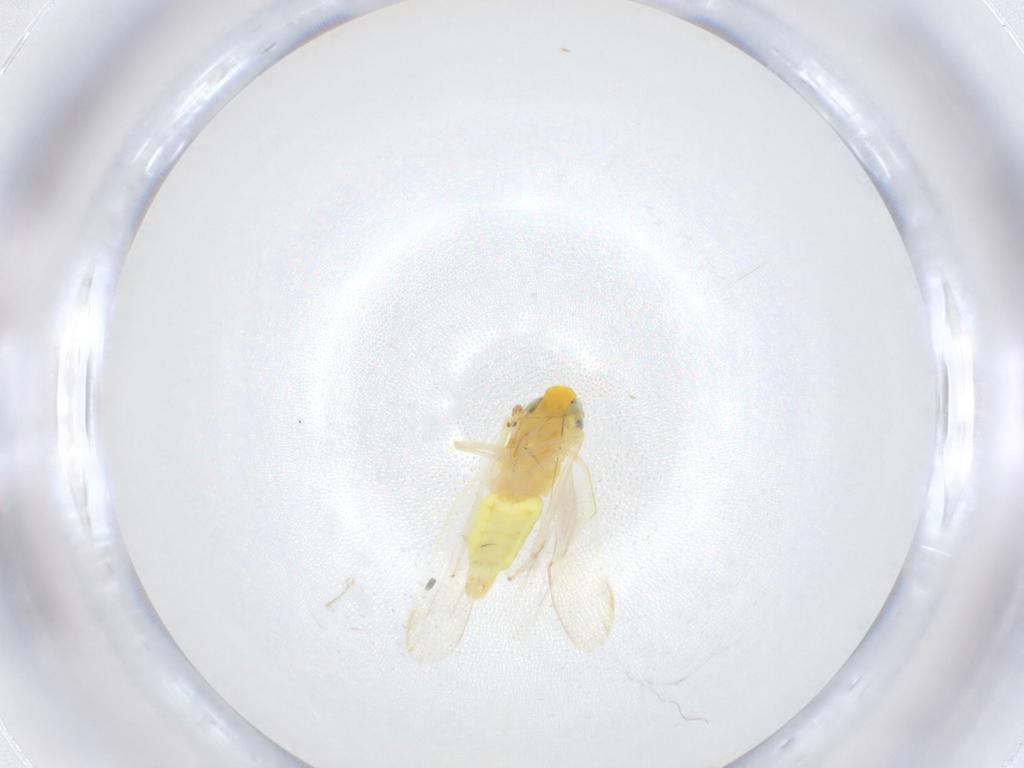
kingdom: Animalia
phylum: Arthropoda
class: Insecta
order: Hemiptera
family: Cicadellidae
